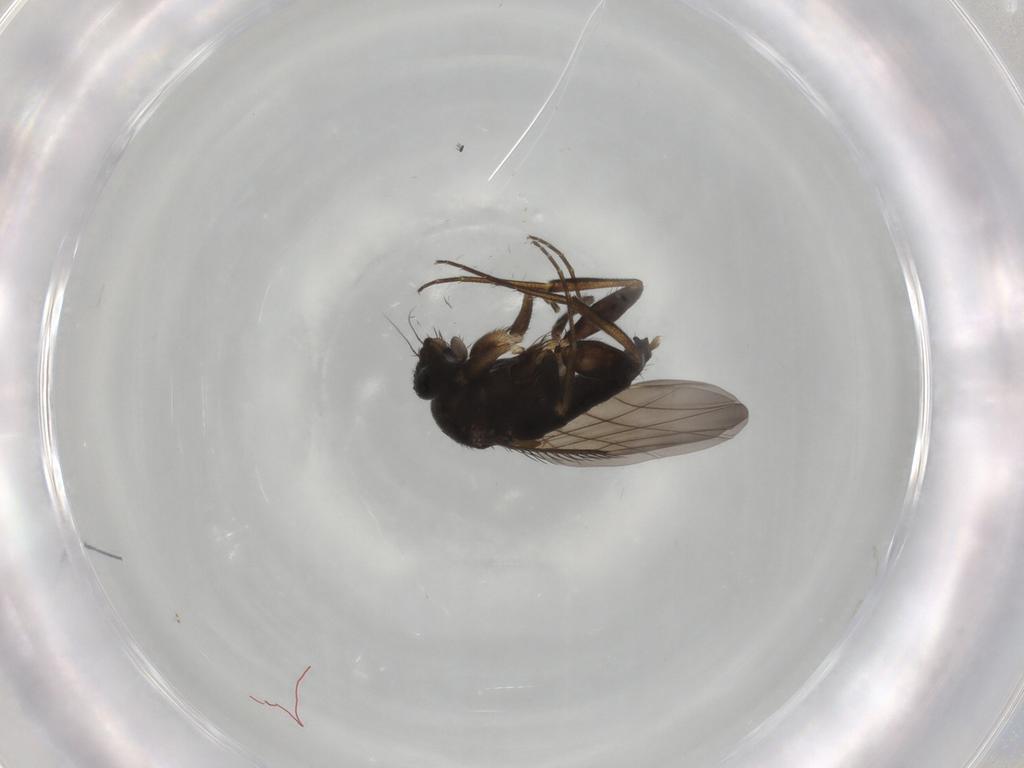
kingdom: Animalia
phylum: Arthropoda
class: Insecta
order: Diptera
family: Phoridae
